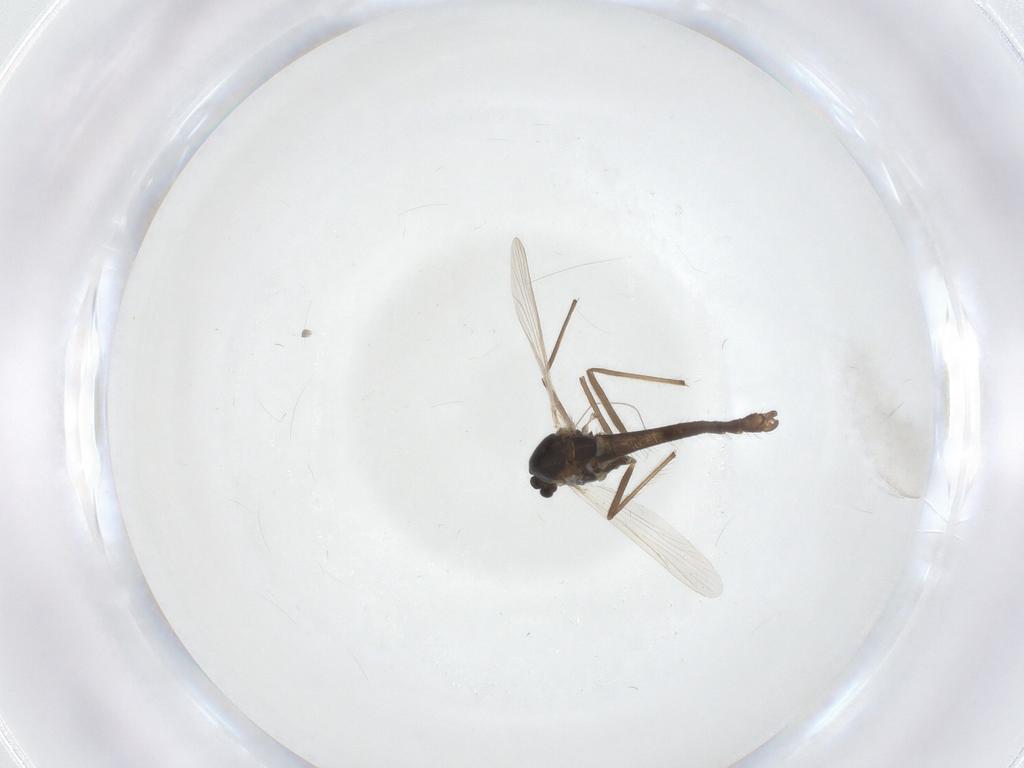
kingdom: Animalia
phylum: Arthropoda
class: Insecta
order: Diptera
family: Chironomidae
